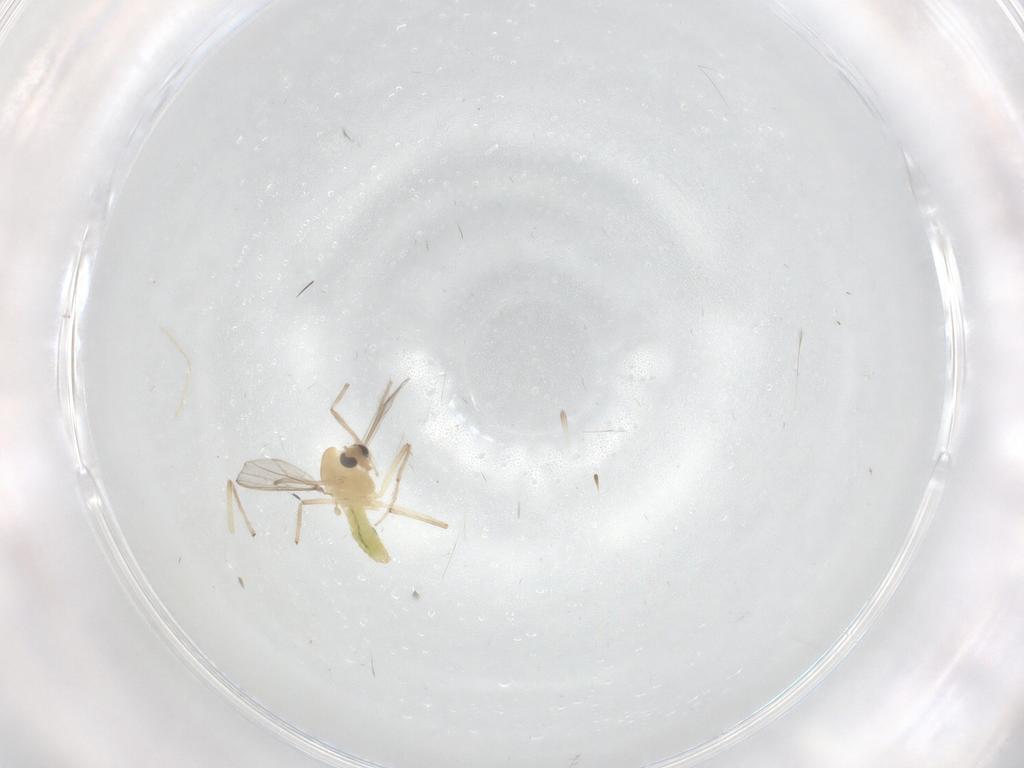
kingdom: Animalia
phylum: Arthropoda
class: Insecta
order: Diptera
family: Chironomidae
